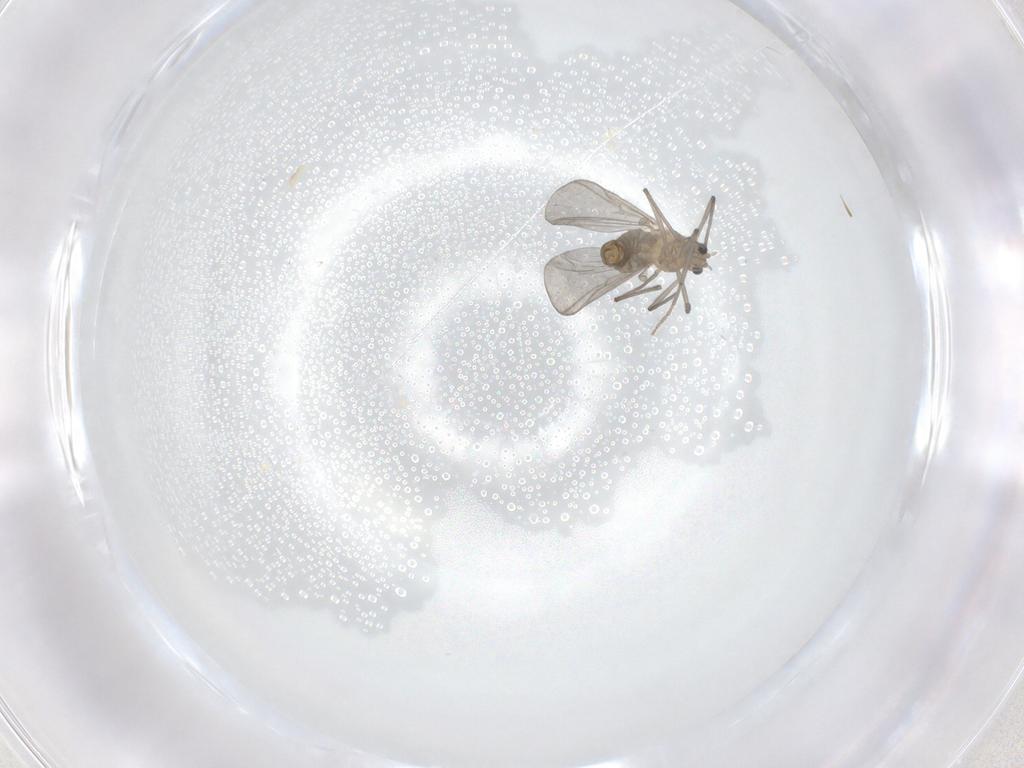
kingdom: Animalia
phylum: Arthropoda
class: Insecta
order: Diptera
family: Chironomidae
